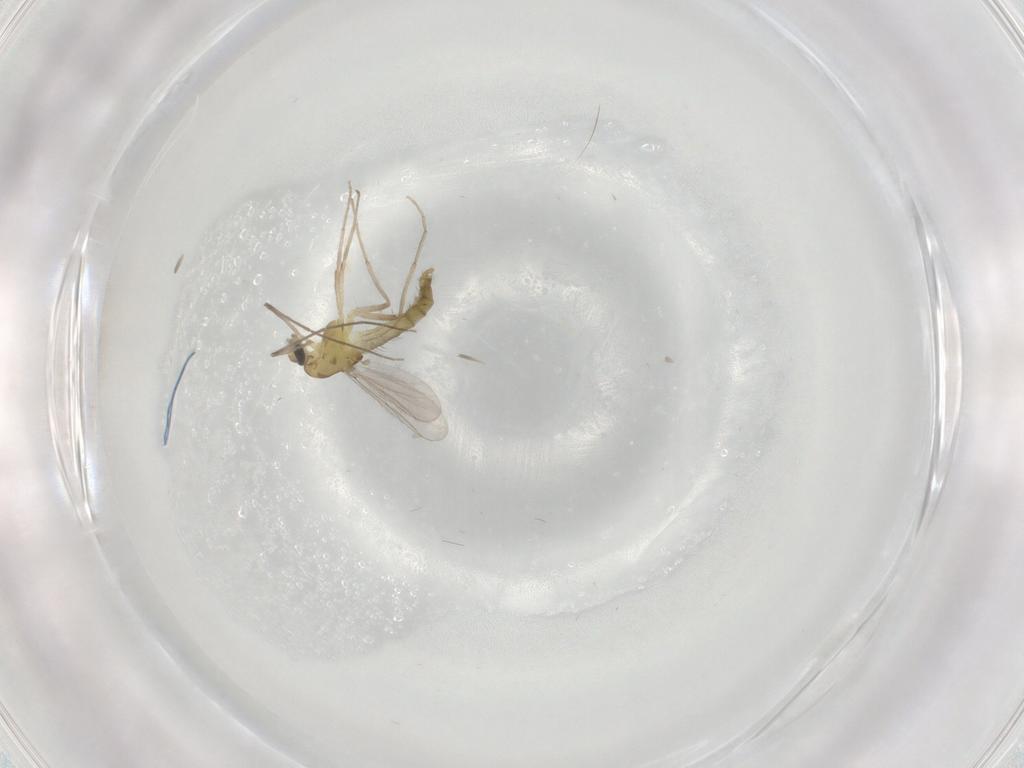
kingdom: Animalia
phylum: Arthropoda
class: Insecta
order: Diptera
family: Chironomidae
